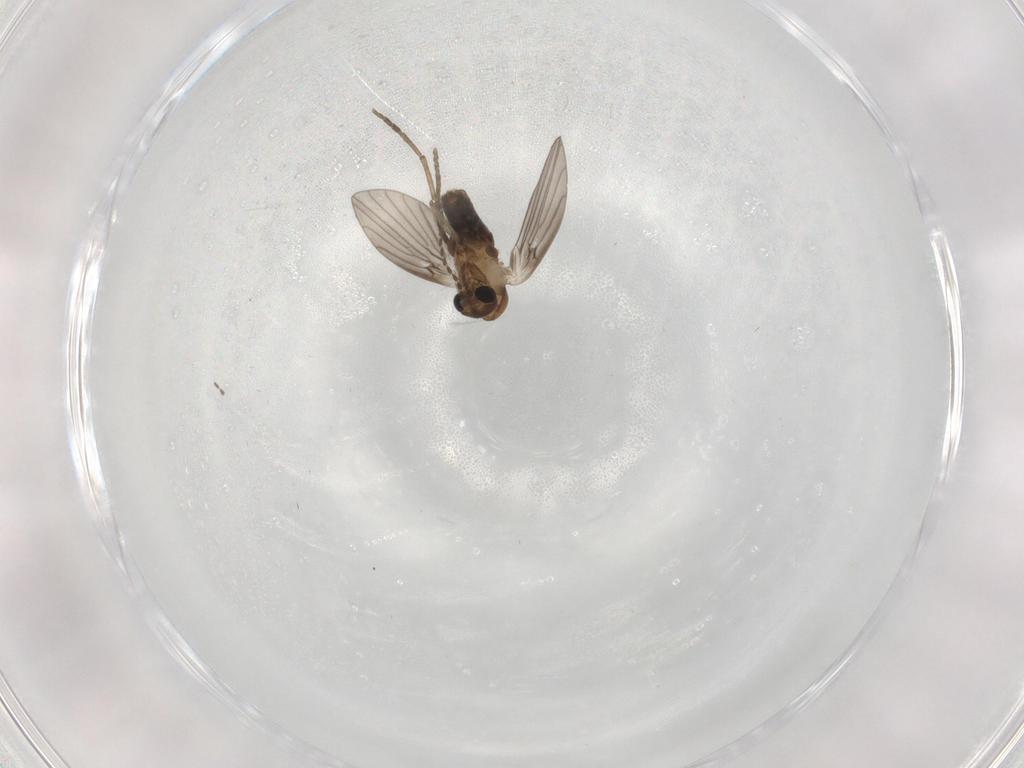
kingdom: Animalia
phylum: Arthropoda
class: Insecta
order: Diptera
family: Psychodidae
